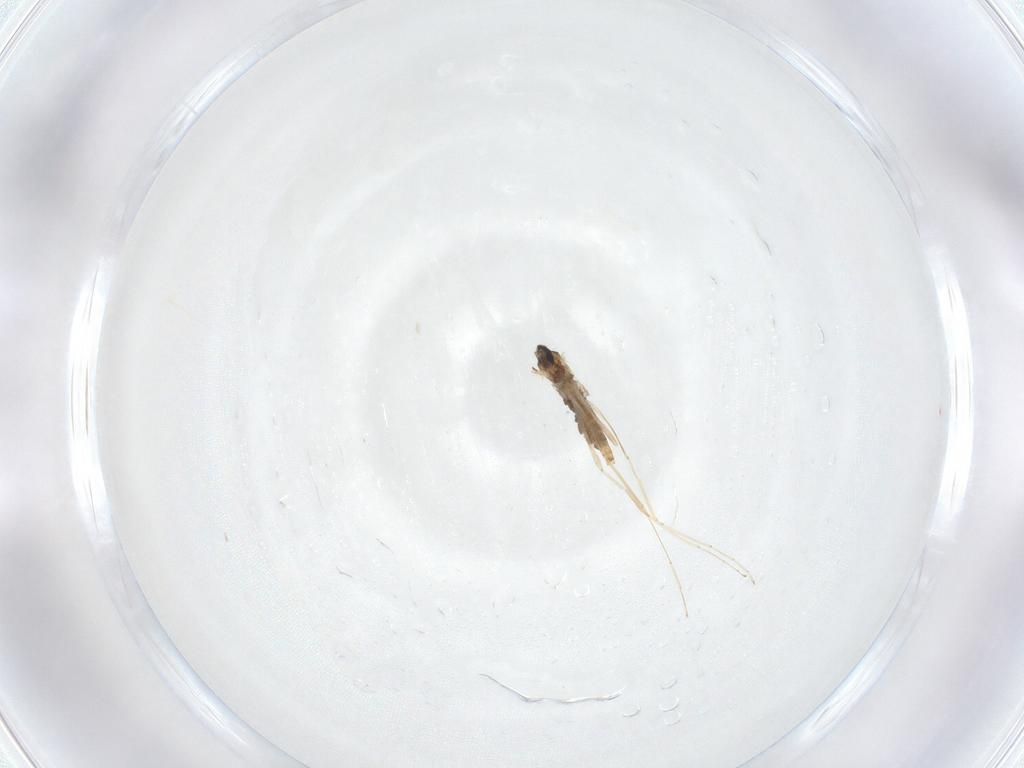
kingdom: Animalia
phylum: Arthropoda
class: Insecta
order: Diptera
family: Cecidomyiidae
